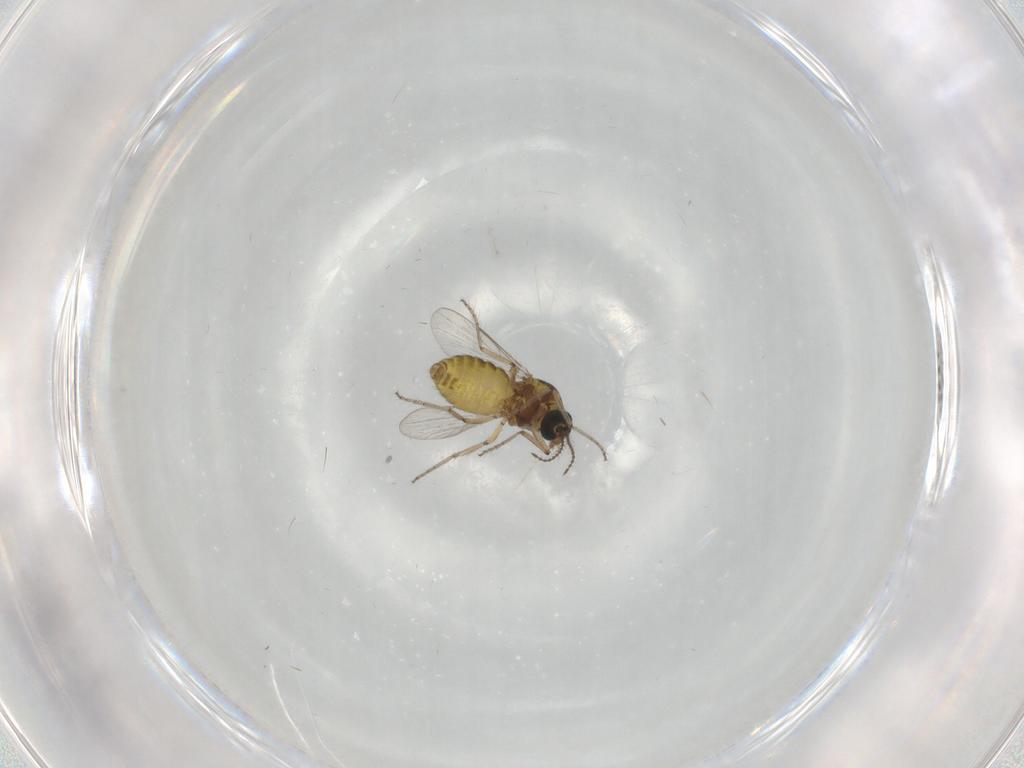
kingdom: Animalia
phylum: Arthropoda
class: Insecta
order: Diptera
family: Ceratopogonidae
